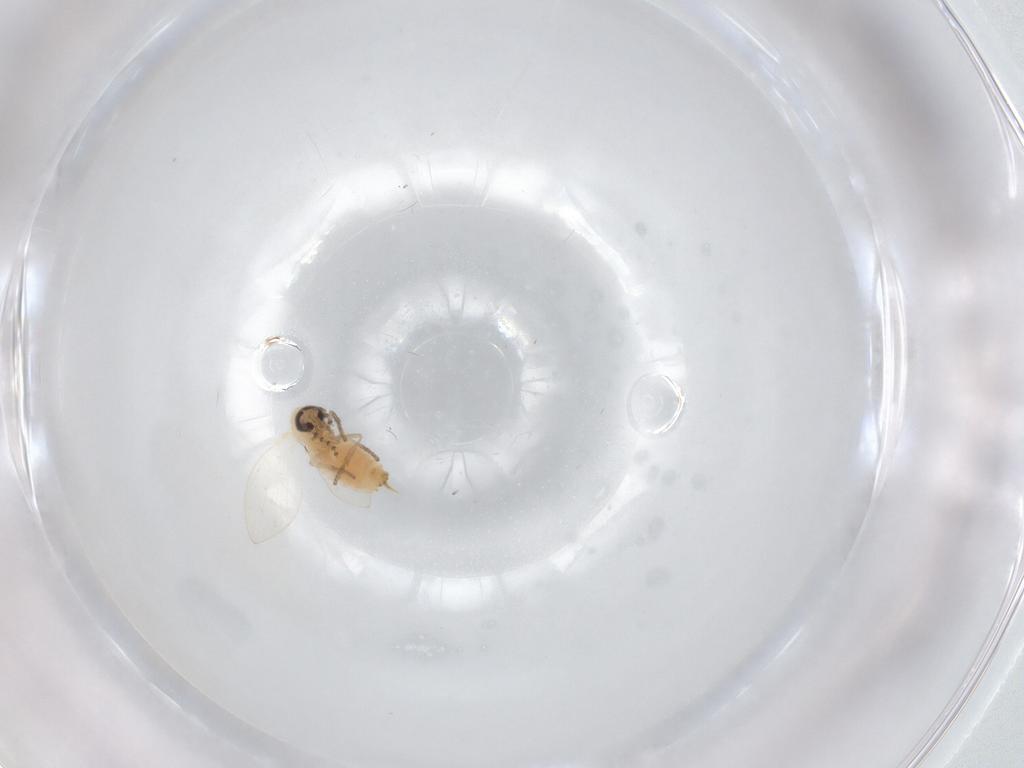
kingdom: Animalia
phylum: Arthropoda
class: Insecta
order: Diptera
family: Psychodidae
